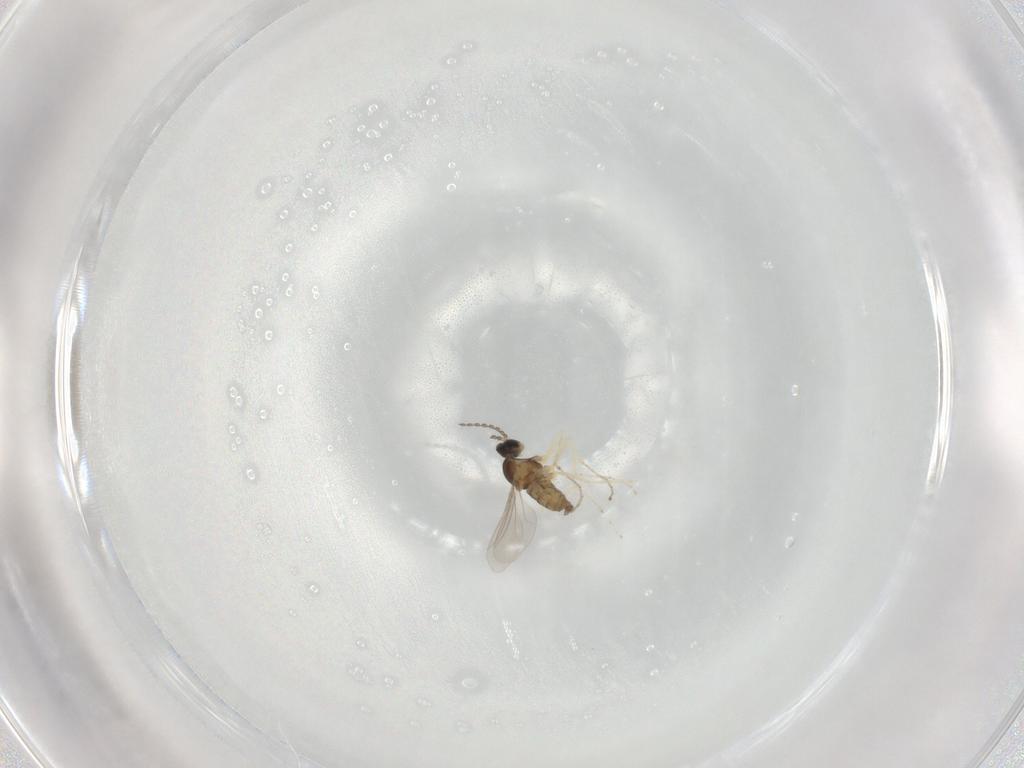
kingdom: Animalia
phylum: Arthropoda
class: Insecta
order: Diptera
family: Cecidomyiidae
